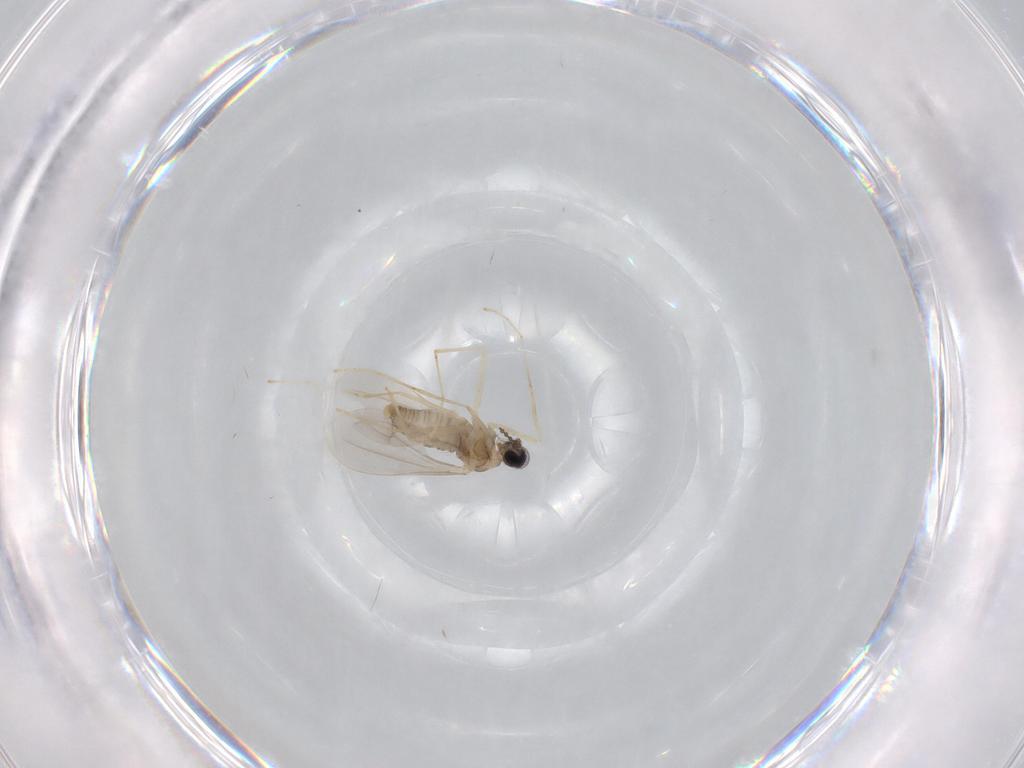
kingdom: Animalia
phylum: Arthropoda
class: Insecta
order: Diptera
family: Cecidomyiidae
